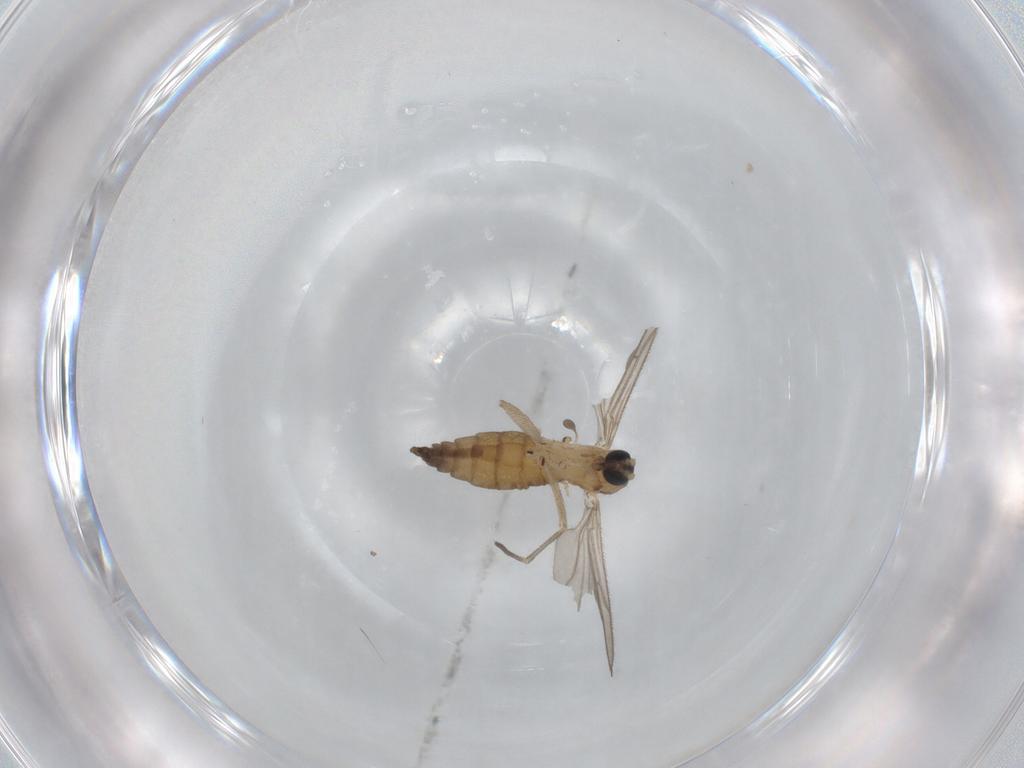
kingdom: Animalia
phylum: Arthropoda
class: Insecta
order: Diptera
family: Sciaridae
